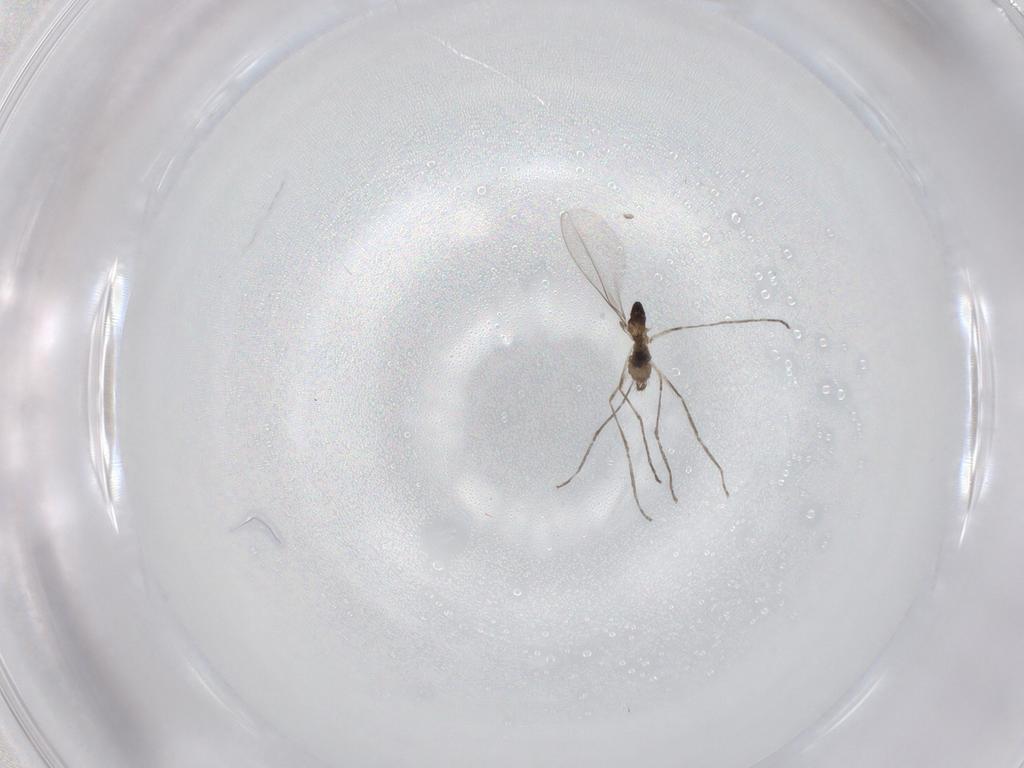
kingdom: Animalia
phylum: Arthropoda
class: Insecta
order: Diptera
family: Cecidomyiidae
